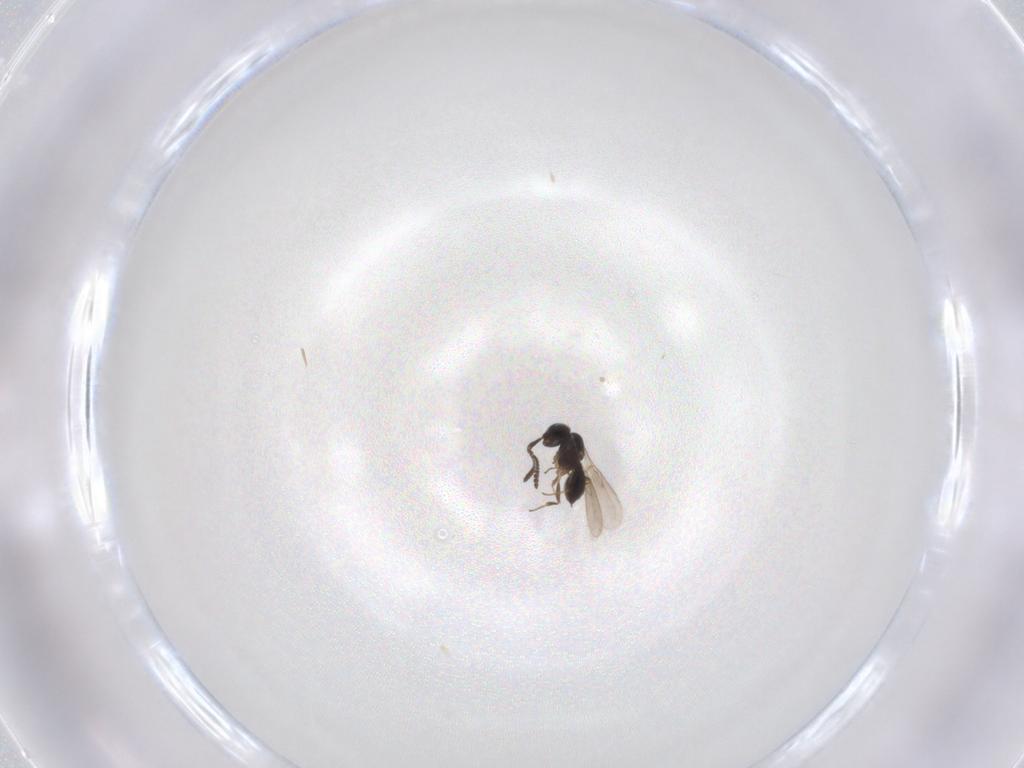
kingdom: Animalia
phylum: Arthropoda
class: Insecta
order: Hymenoptera
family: Scelionidae
